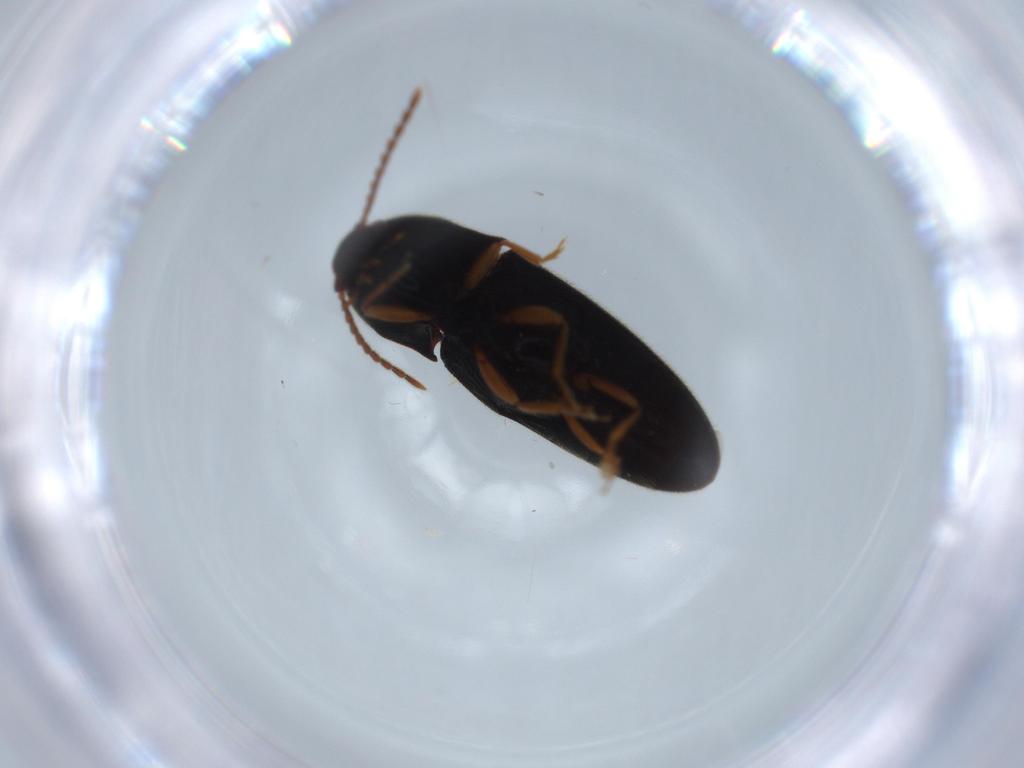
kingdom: Animalia
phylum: Arthropoda
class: Insecta
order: Coleoptera
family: Elateridae
